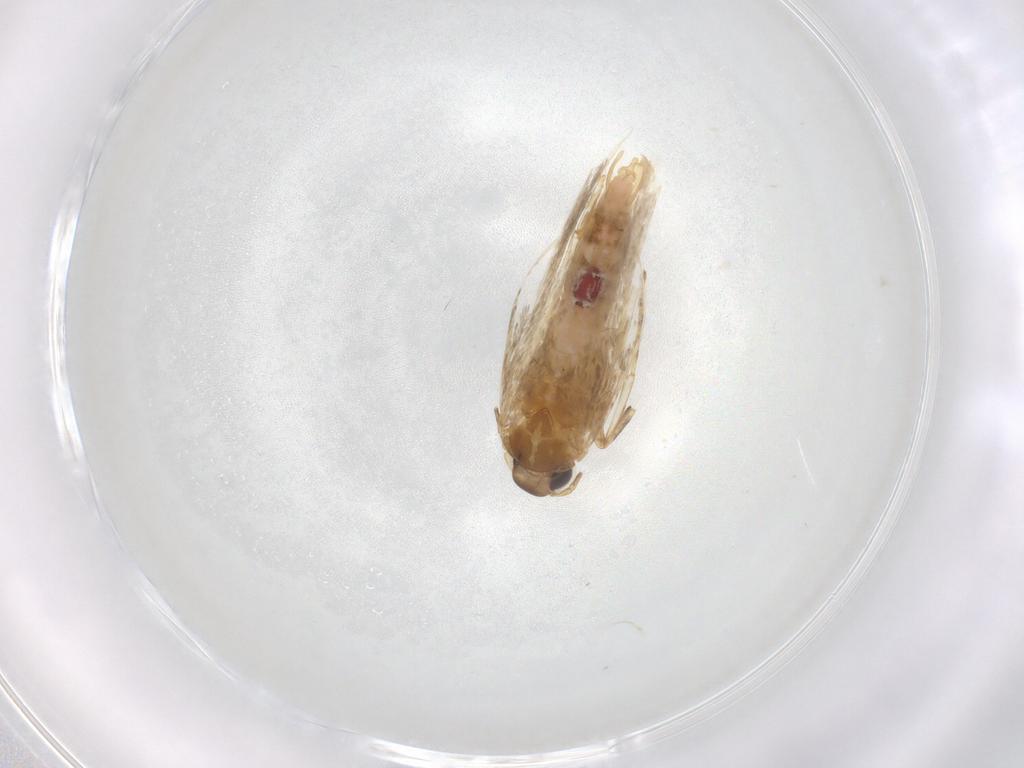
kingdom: Animalia
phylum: Arthropoda
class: Insecta
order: Lepidoptera
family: Cosmopterigidae
